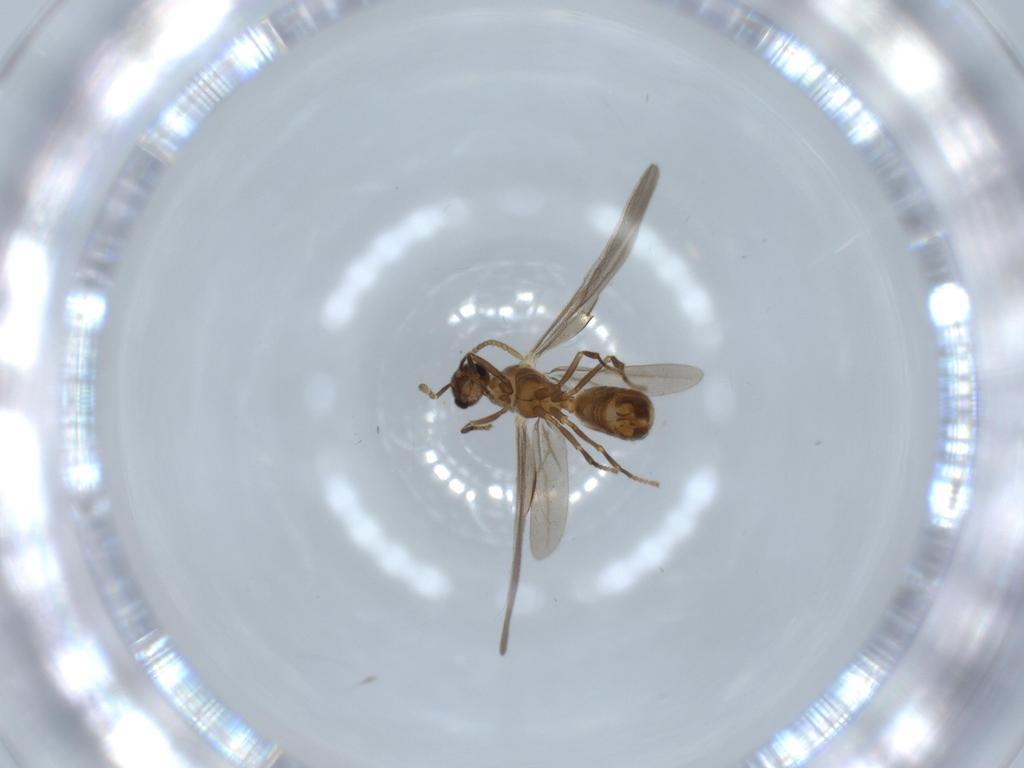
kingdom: Animalia
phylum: Arthropoda
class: Insecta
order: Hymenoptera
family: Formicidae
